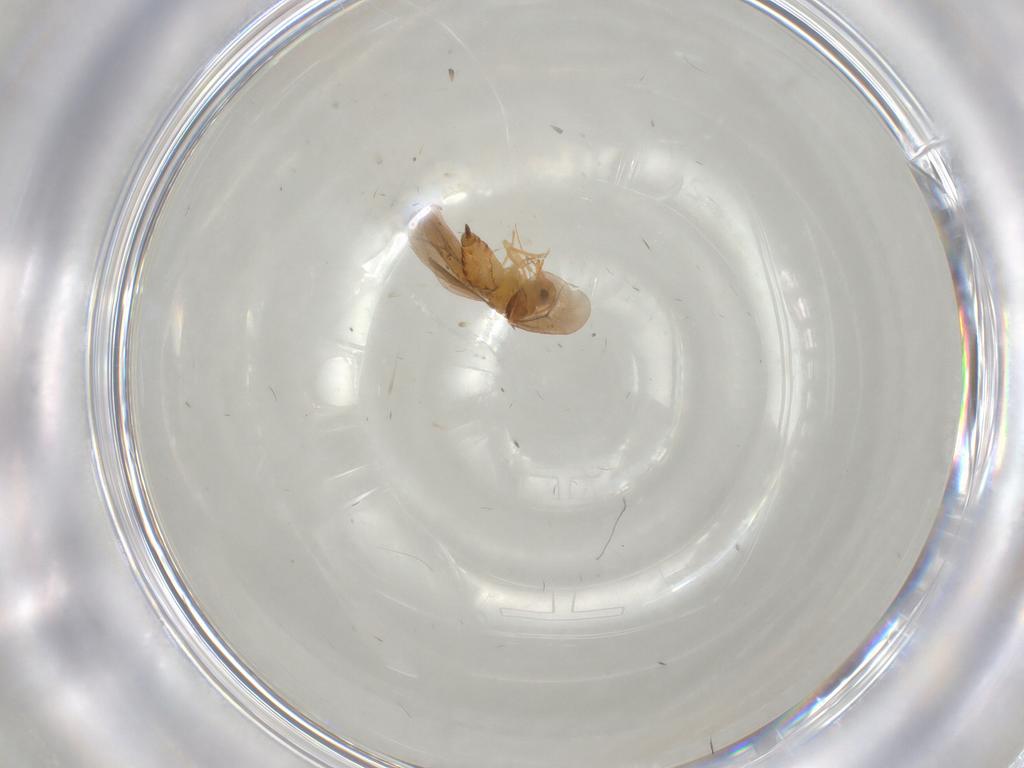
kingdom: Animalia
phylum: Arthropoda
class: Insecta
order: Hemiptera
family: Aleyrodidae
